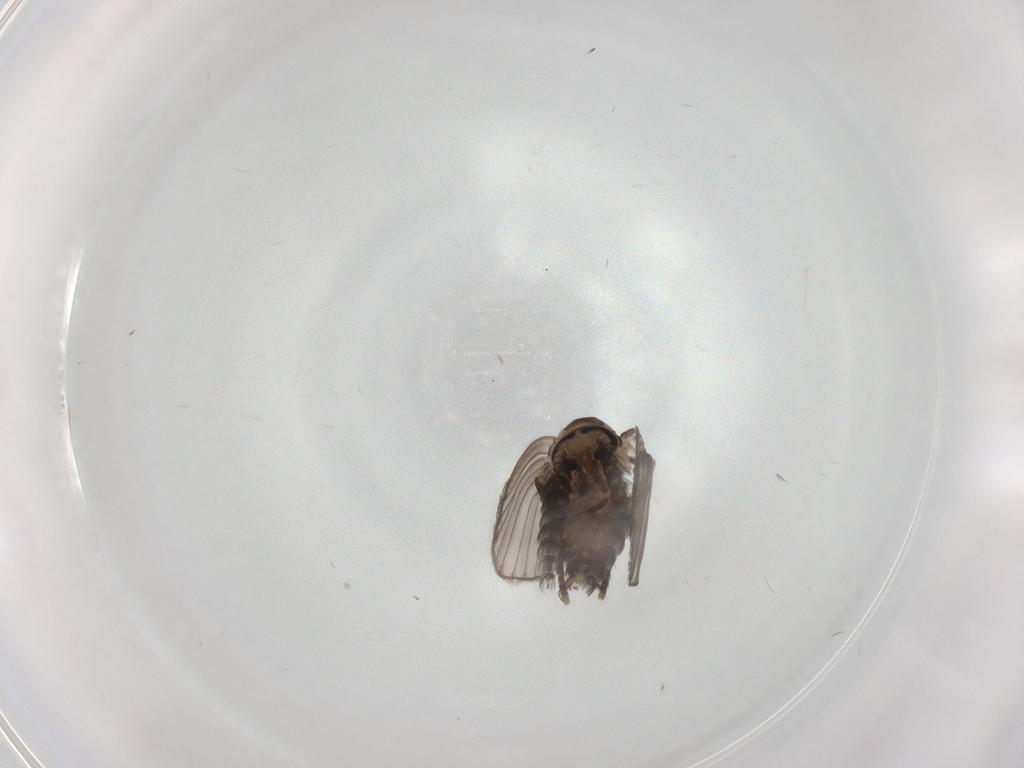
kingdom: Animalia
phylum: Arthropoda
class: Insecta
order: Diptera
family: Psychodidae
